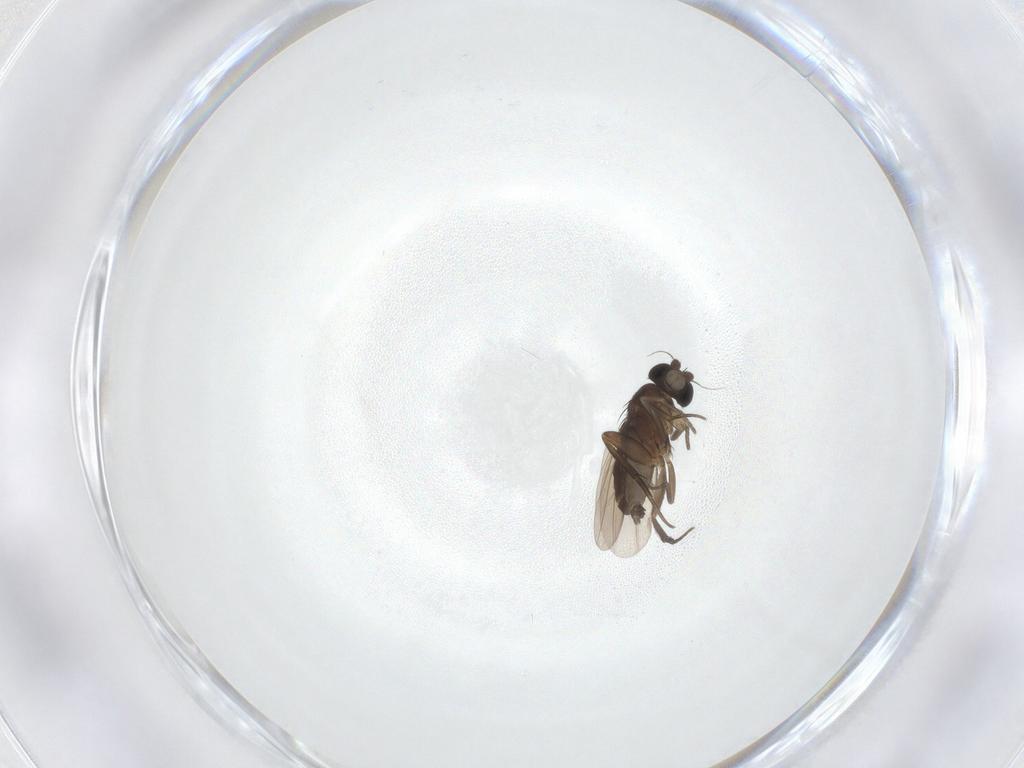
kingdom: Animalia
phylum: Arthropoda
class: Insecta
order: Diptera
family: Phoridae
